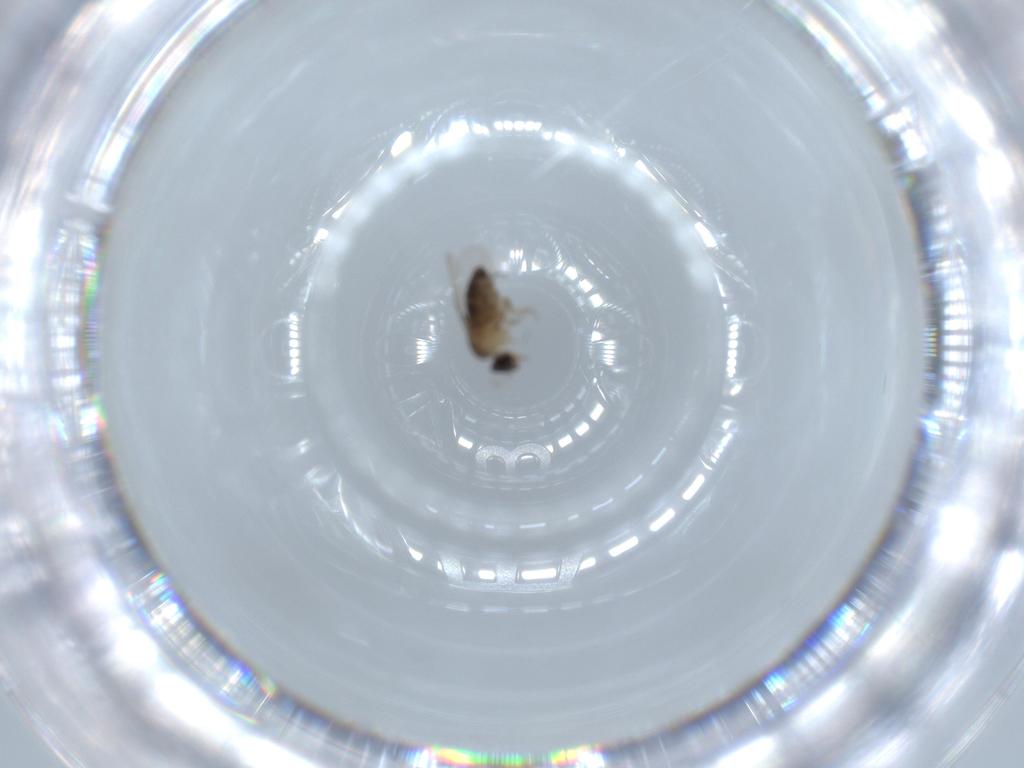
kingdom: Animalia
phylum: Arthropoda
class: Insecta
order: Diptera
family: Phoridae
